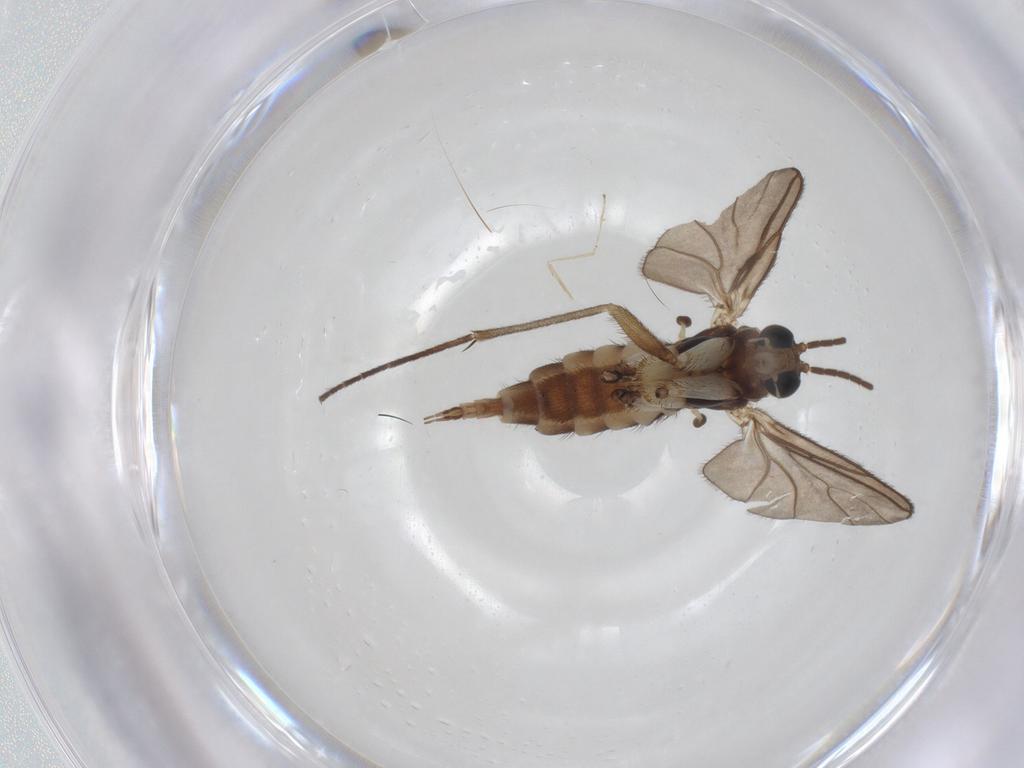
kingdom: Animalia
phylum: Arthropoda
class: Insecta
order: Diptera
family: Sciaridae
